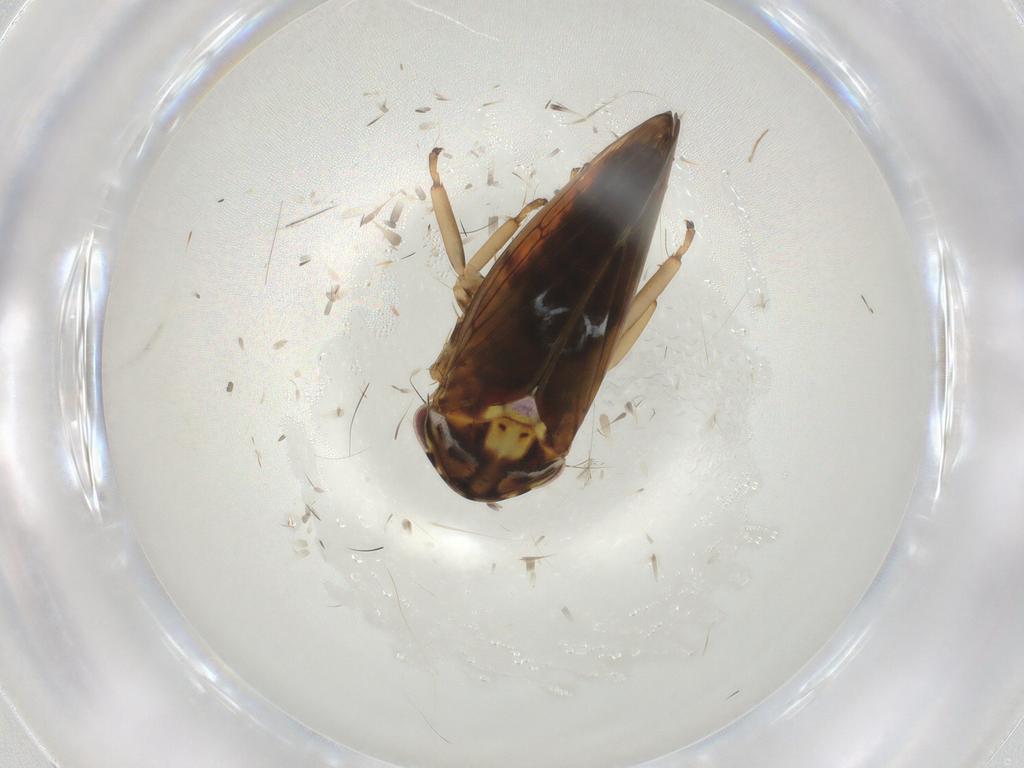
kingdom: Animalia
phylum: Arthropoda
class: Insecta
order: Hemiptera
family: Cicadellidae
